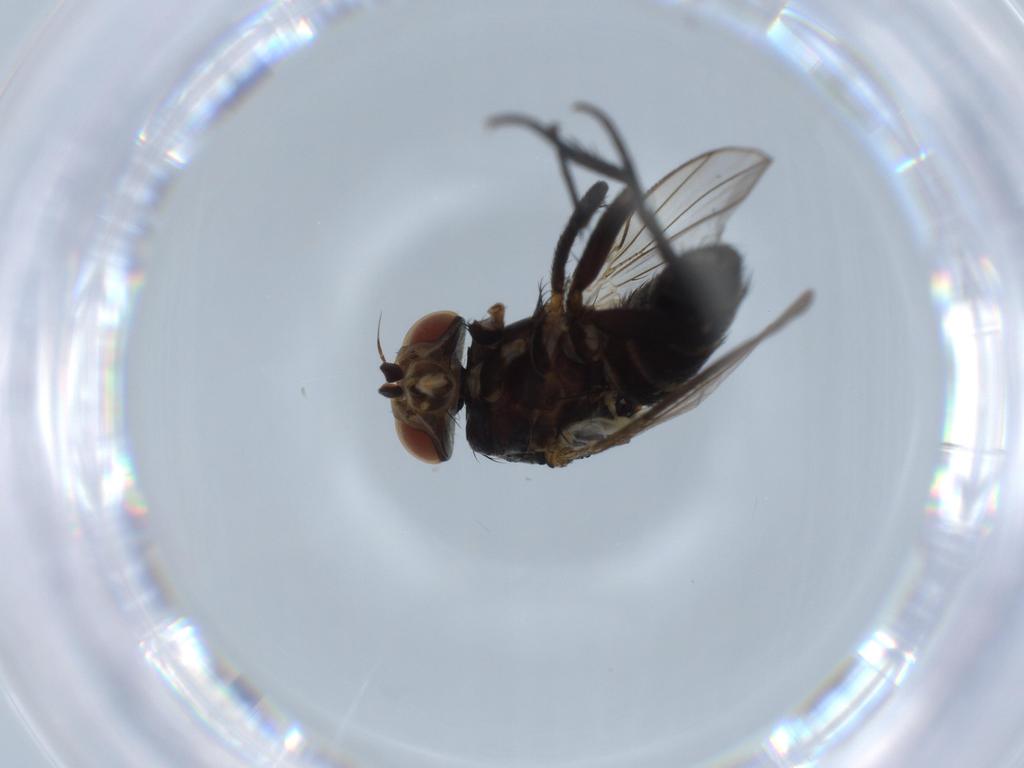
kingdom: Animalia
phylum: Arthropoda
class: Insecta
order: Diptera
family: Tachinidae
